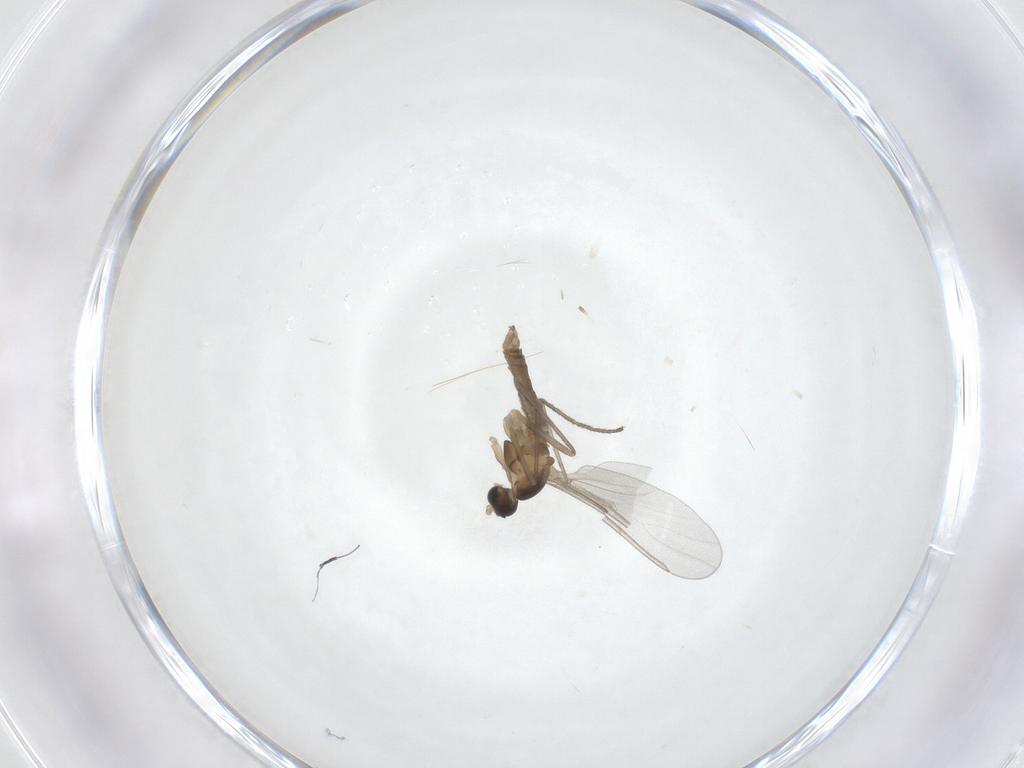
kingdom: Animalia
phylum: Arthropoda
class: Insecta
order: Diptera
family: Cecidomyiidae
